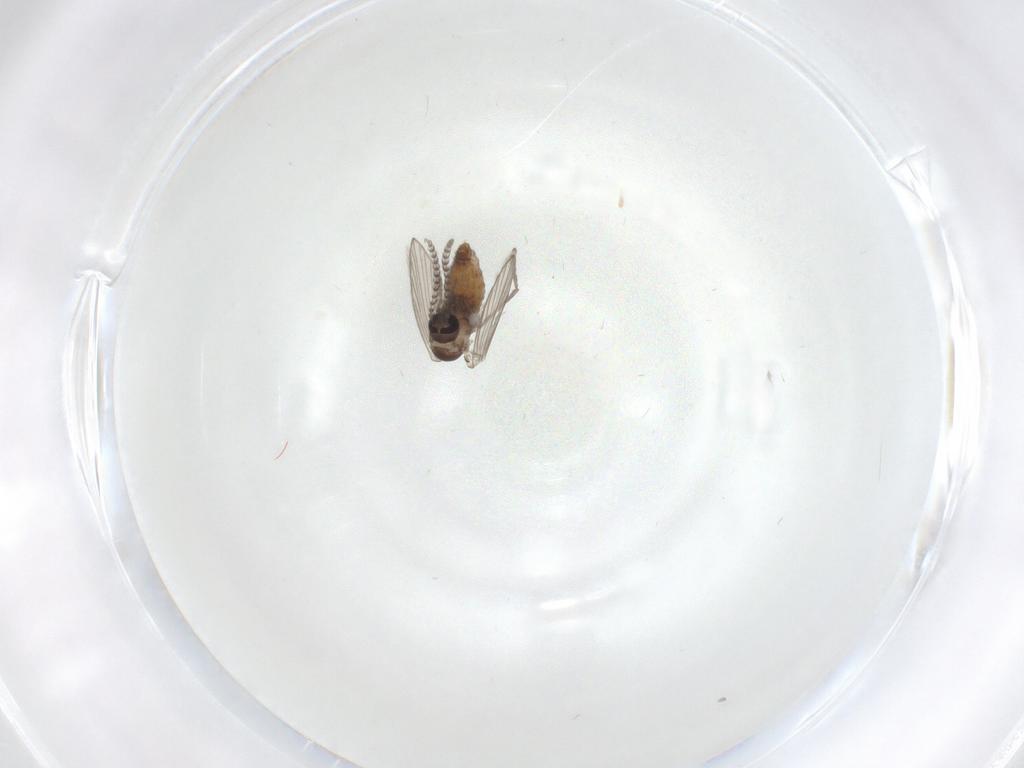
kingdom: Animalia
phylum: Arthropoda
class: Insecta
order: Diptera
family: Psychodidae
